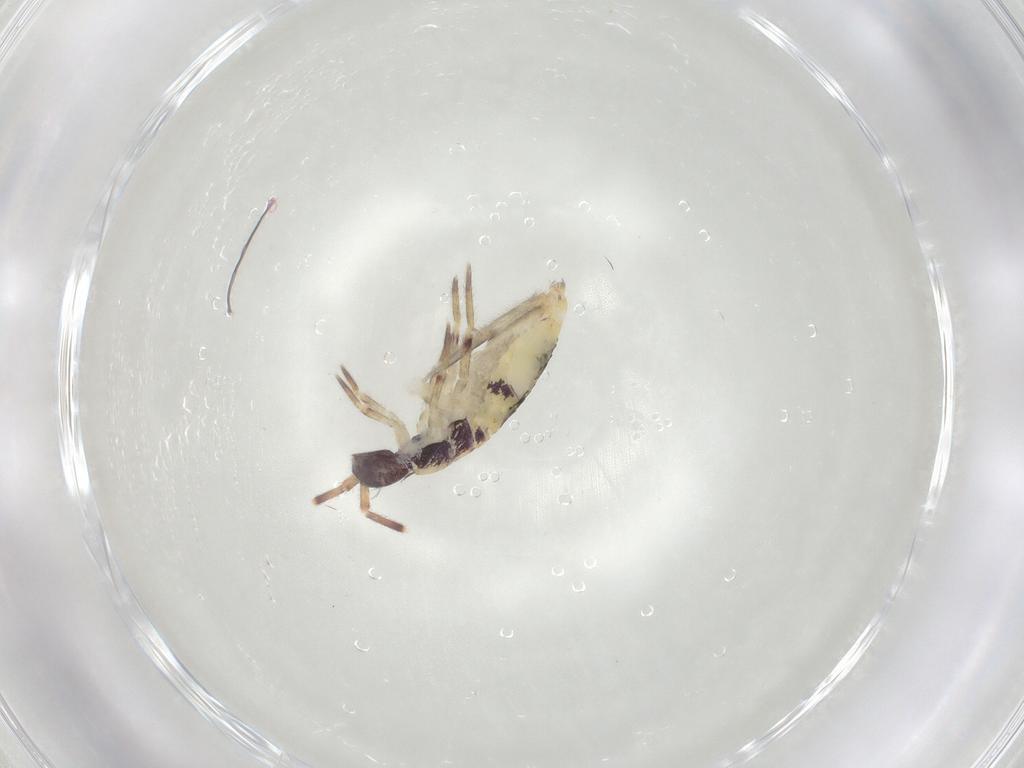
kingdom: Animalia
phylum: Arthropoda
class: Collembola
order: Entomobryomorpha
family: Entomobryidae
